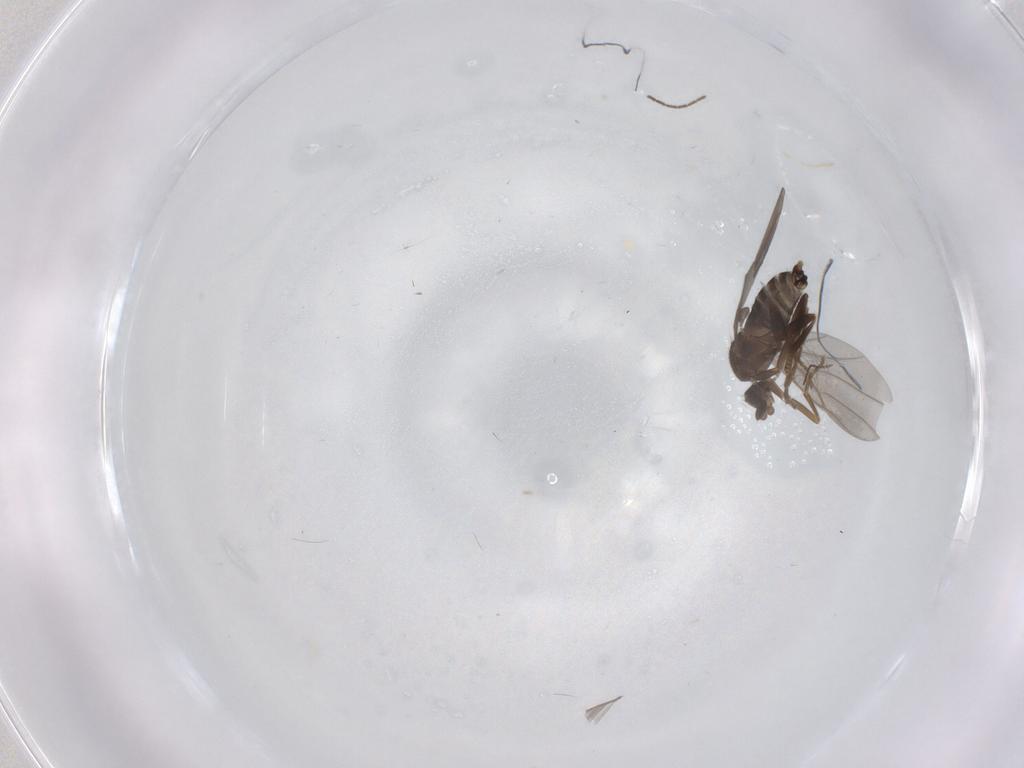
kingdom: Animalia
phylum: Arthropoda
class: Insecta
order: Diptera
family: Chironomidae
